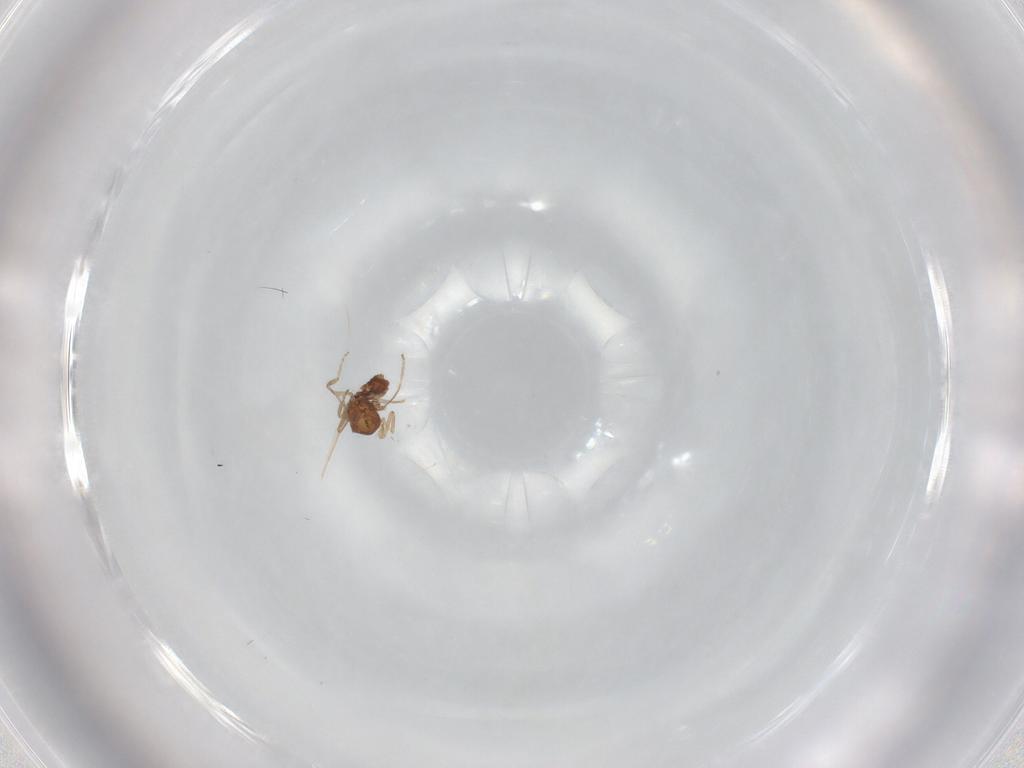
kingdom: Animalia
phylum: Arthropoda
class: Insecta
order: Diptera
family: Ceratopogonidae
